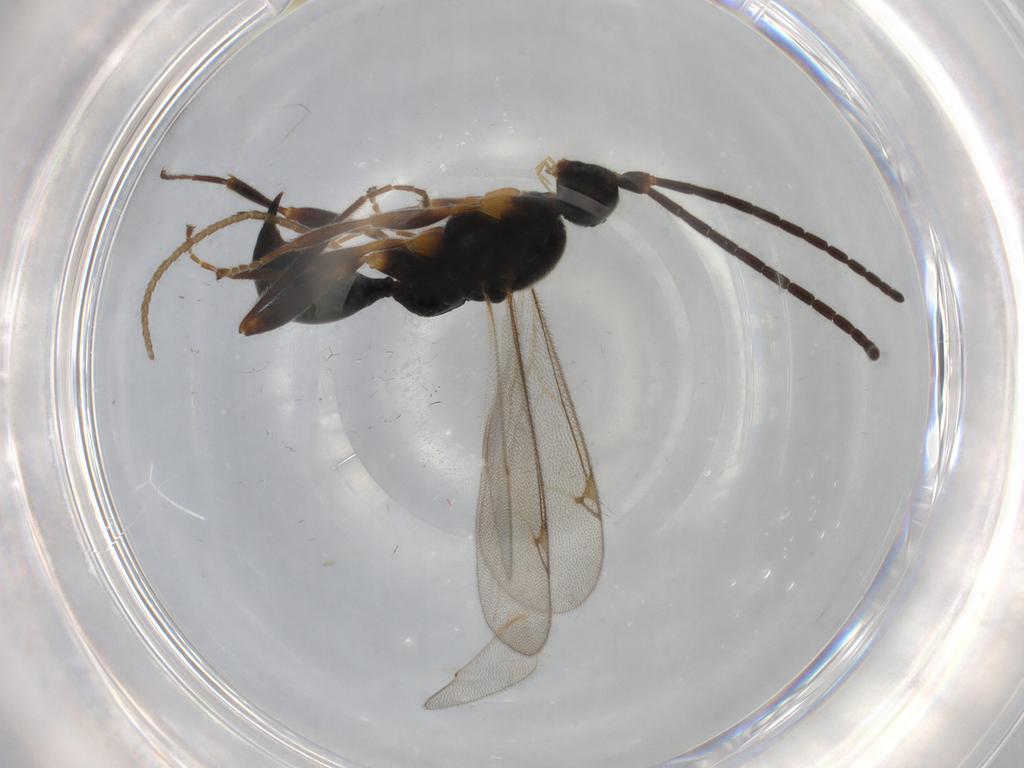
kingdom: Animalia
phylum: Arthropoda
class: Insecta
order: Hymenoptera
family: Proctotrupidae
